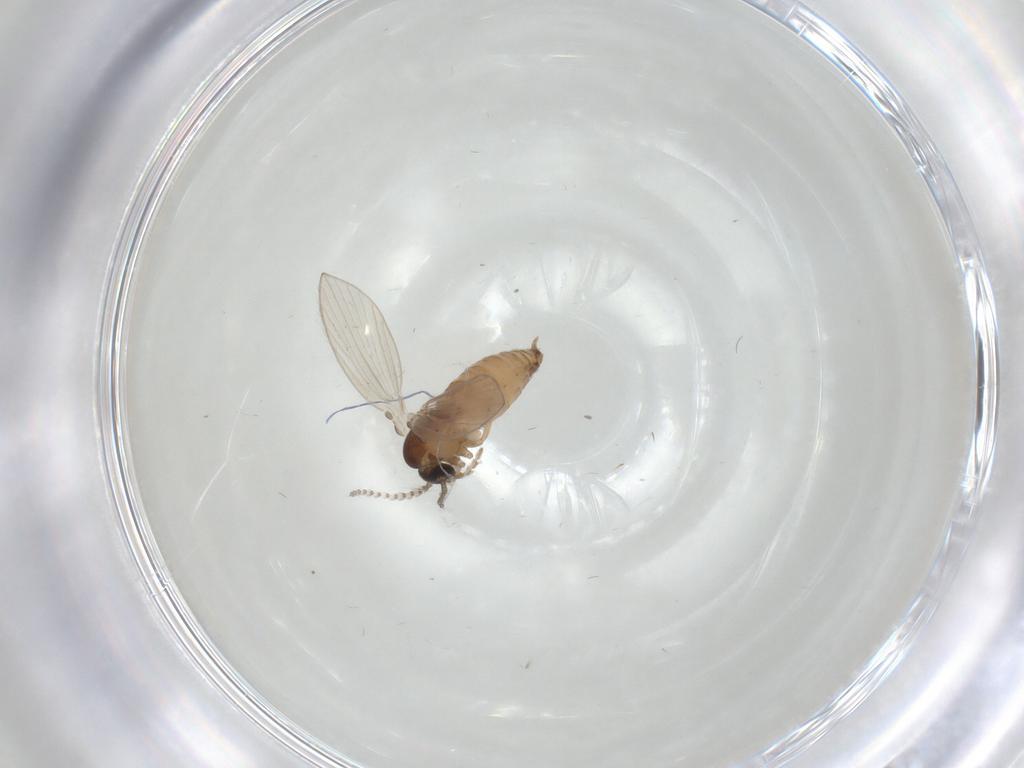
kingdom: Animalia
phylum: Arthropoda
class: Insecta
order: Diptera
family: Psychodidae
